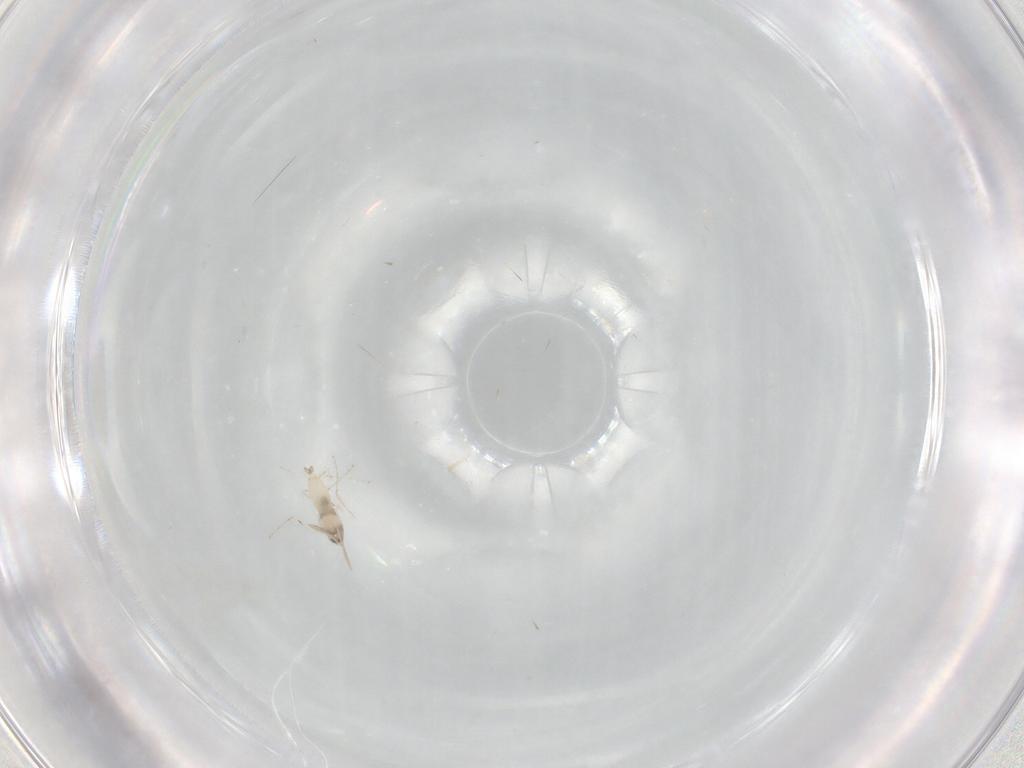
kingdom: Animalia
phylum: Arthropoda
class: Insecta
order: Diptera
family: Cecidomyiidae
